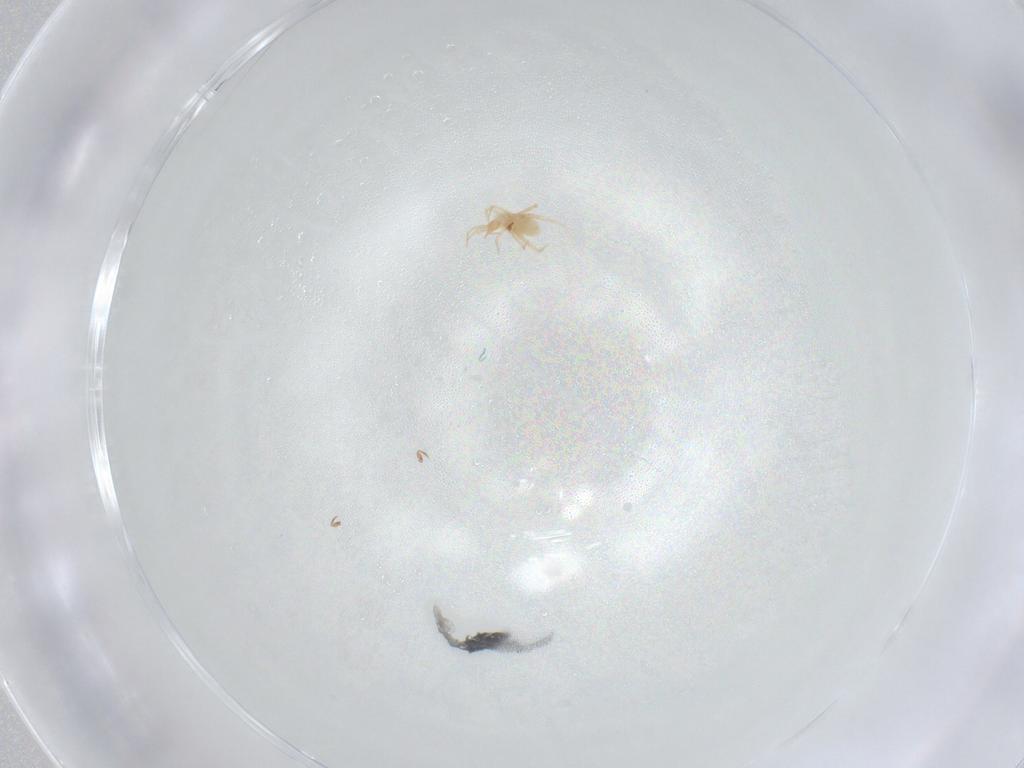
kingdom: Animalia
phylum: Arthropoda
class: Arachnida
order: Sarcoptiformes
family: Scheloribatidae
